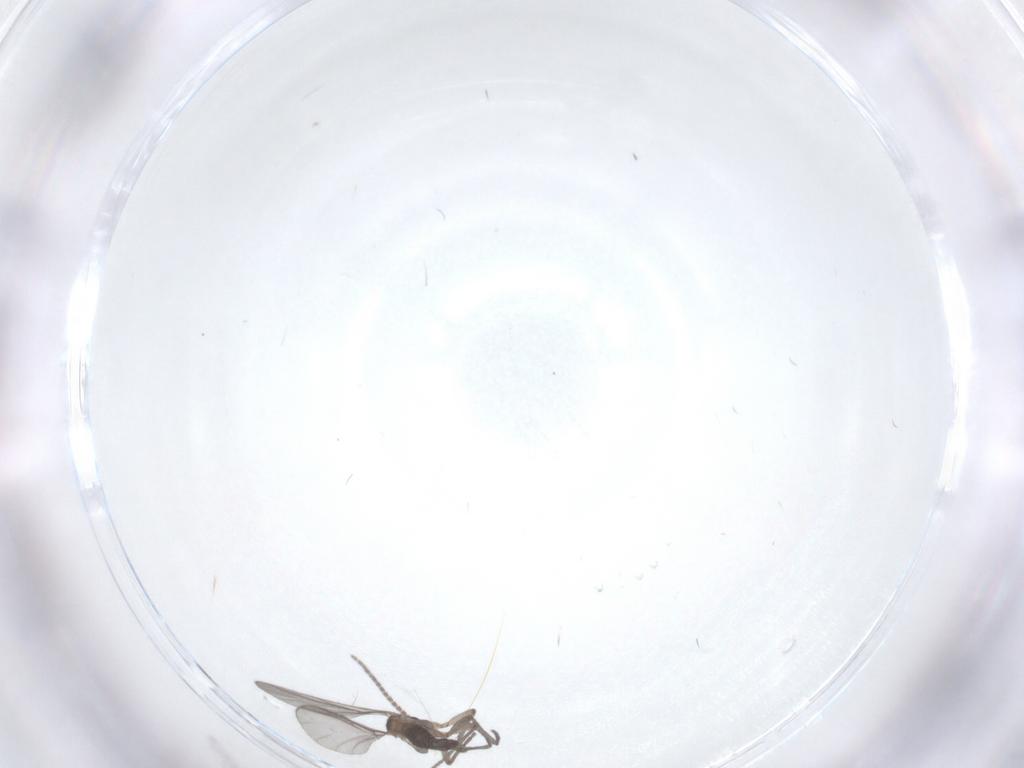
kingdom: Animalia
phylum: Arthropoda
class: Insecta
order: Diptera
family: Sciaridae
